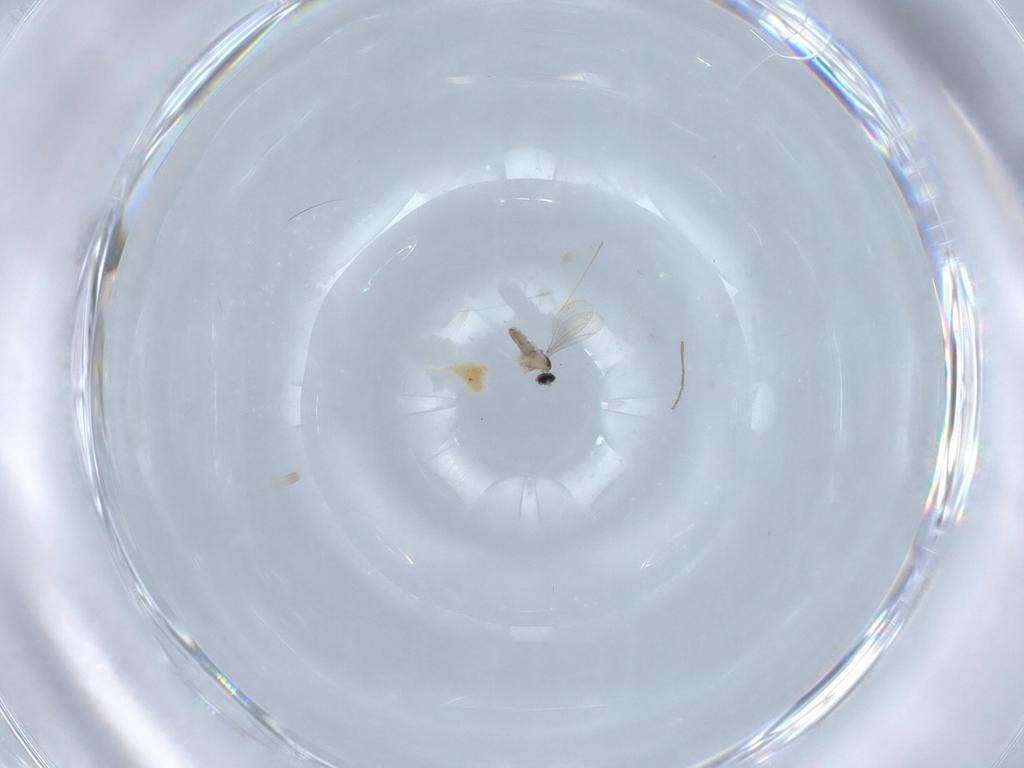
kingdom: Animalia
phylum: Arthropoda
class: Insecta
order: Diptera
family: Cecidomyiidae
